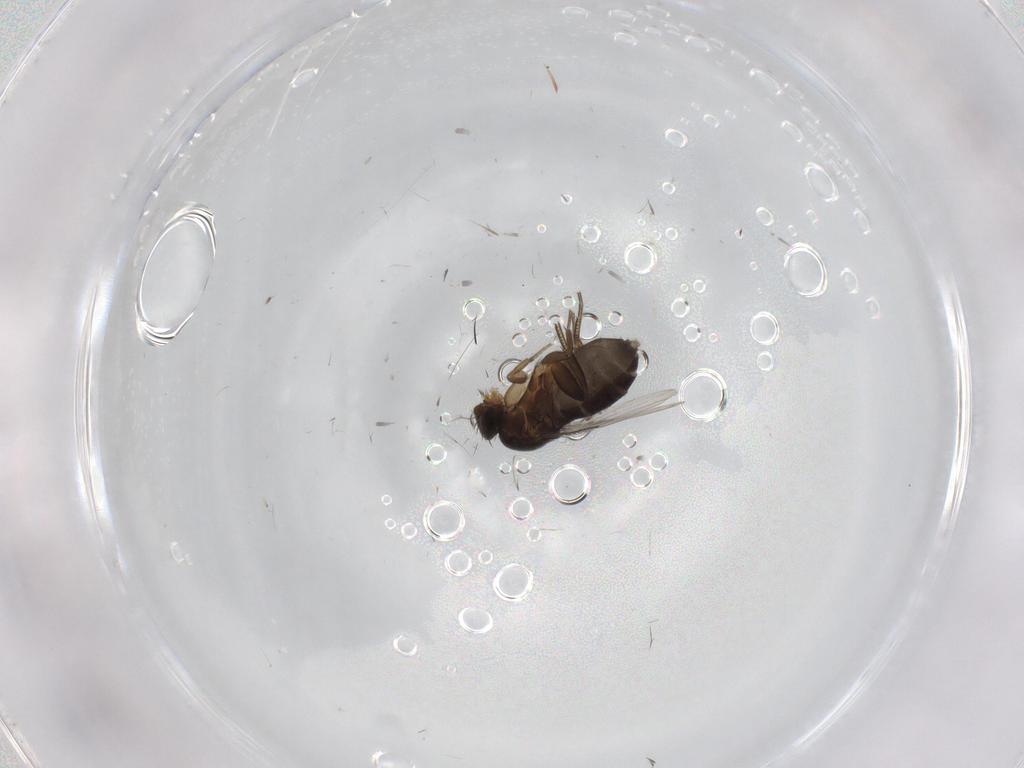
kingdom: Animalia
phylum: Arthropoda
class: Insecta
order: Diptera
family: Phoridae
